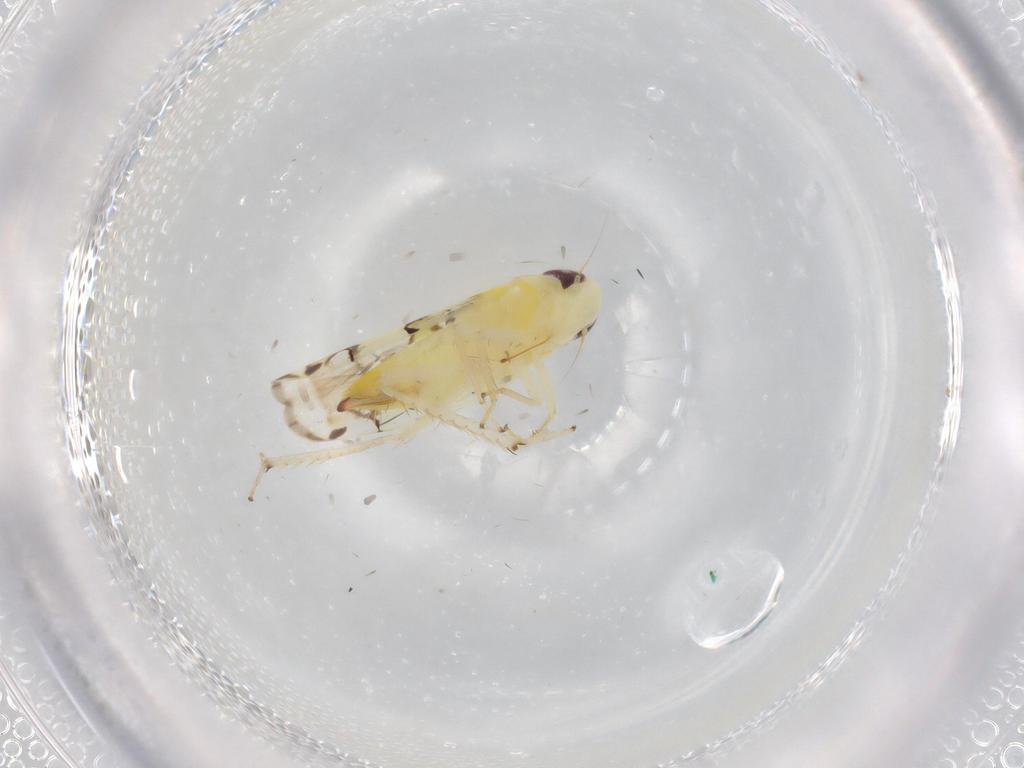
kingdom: Animalia
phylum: Arthropoda
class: Insecta
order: Hemiptera
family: Cicadellidae
